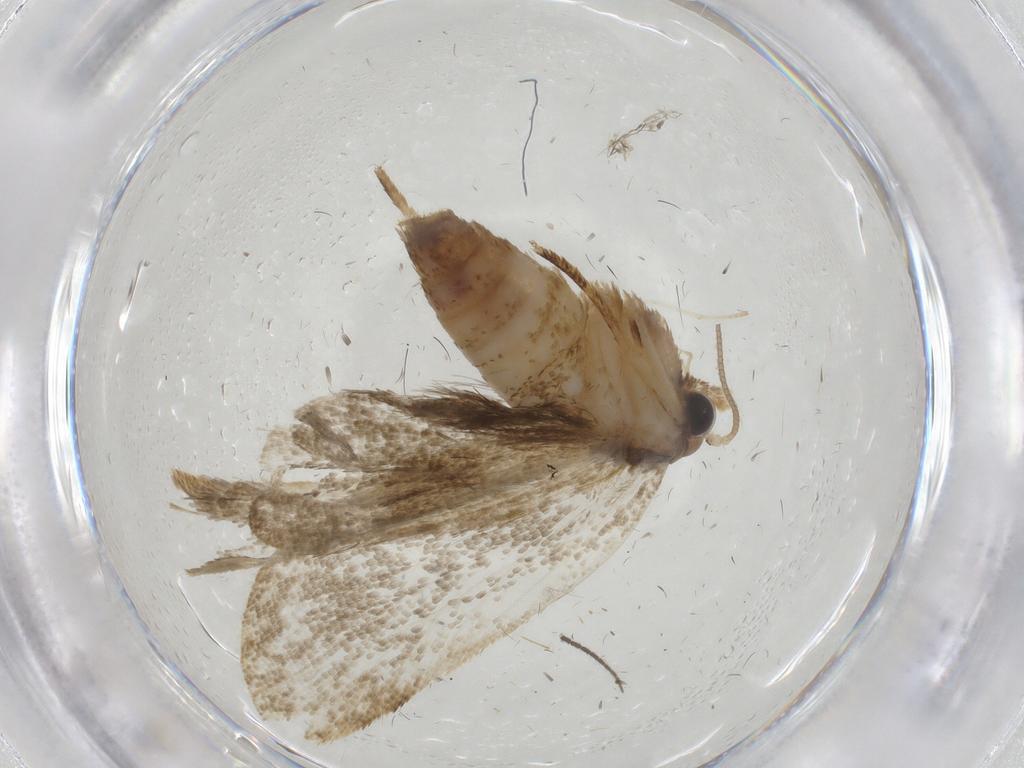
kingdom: Animalia
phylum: Arthropoda
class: Insecta
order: Lepidoptera
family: Tortricidae
